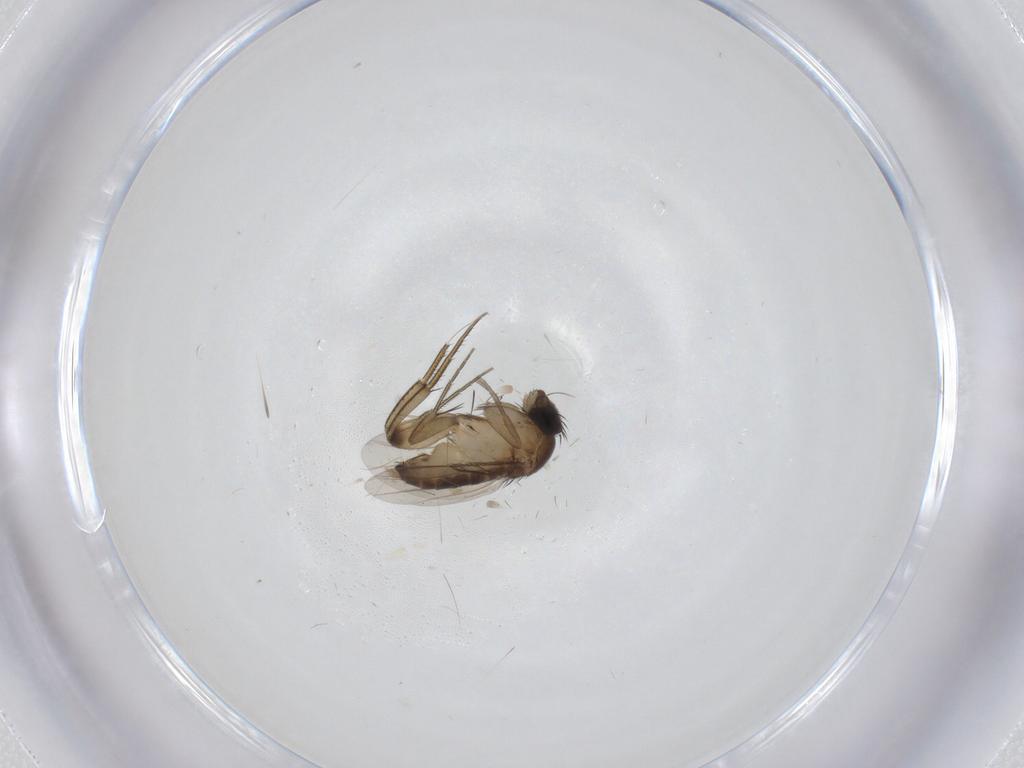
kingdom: Animalia
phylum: Arthropoda
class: Insecta
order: Diptera
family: Phoridae
